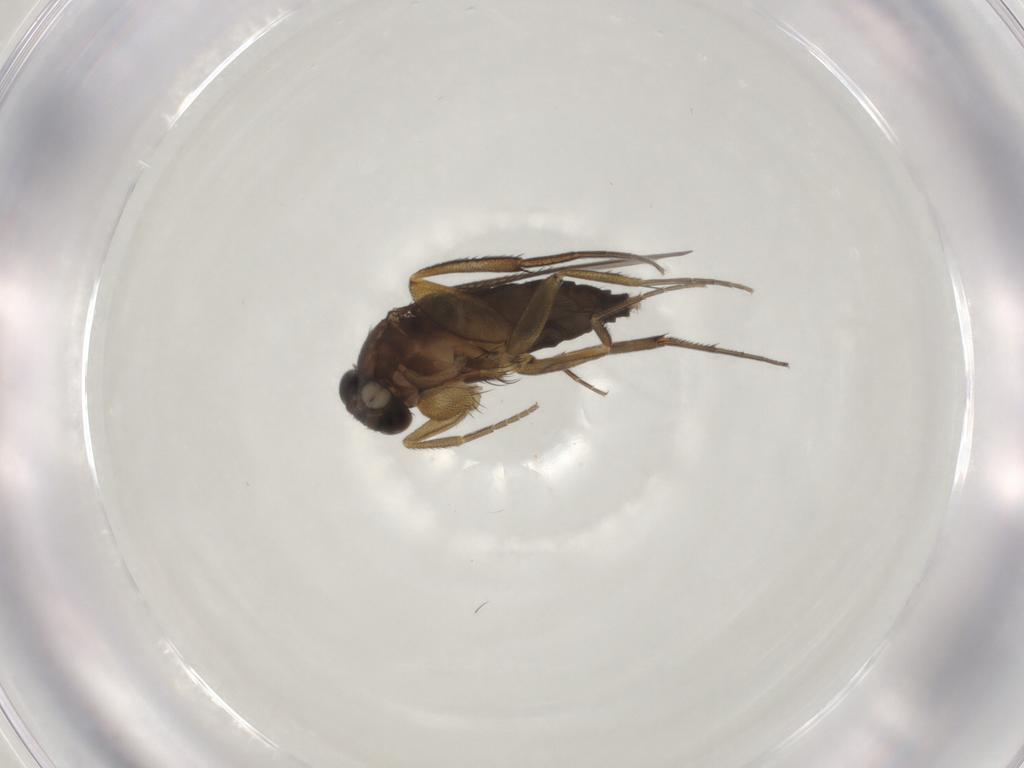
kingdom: Animalia
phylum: Arthropoda
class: Insecta
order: Diptera
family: Phoridae
